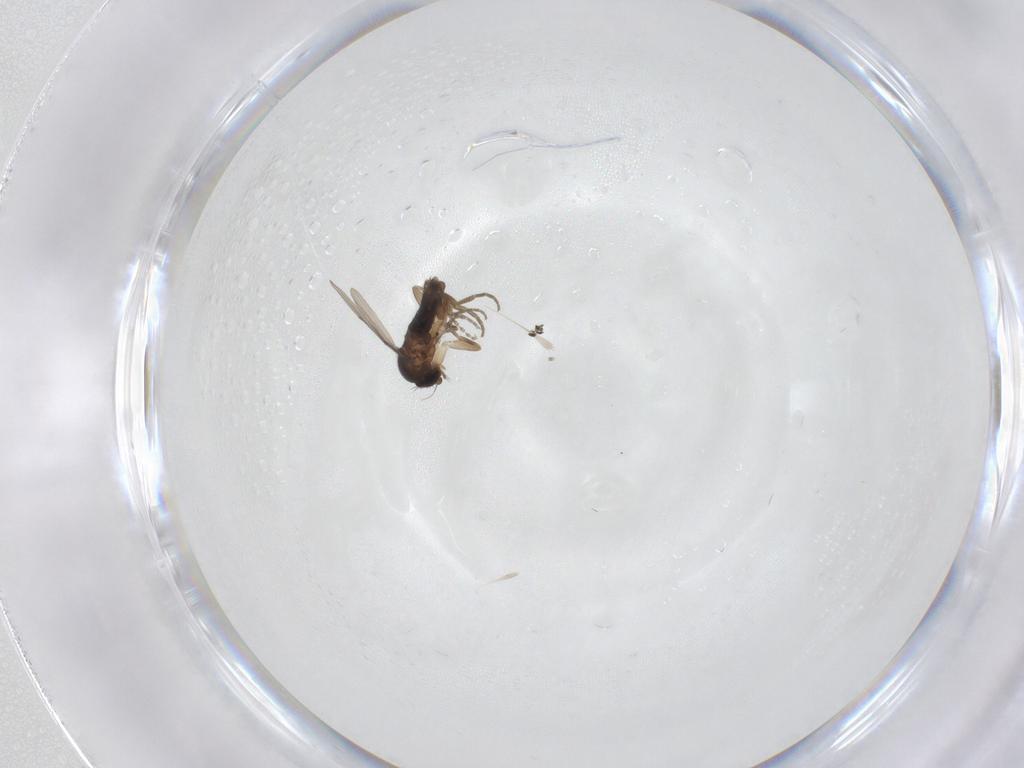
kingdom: Animalia
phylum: Arthropoda
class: Insecta
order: Diptera
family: Phoridae
